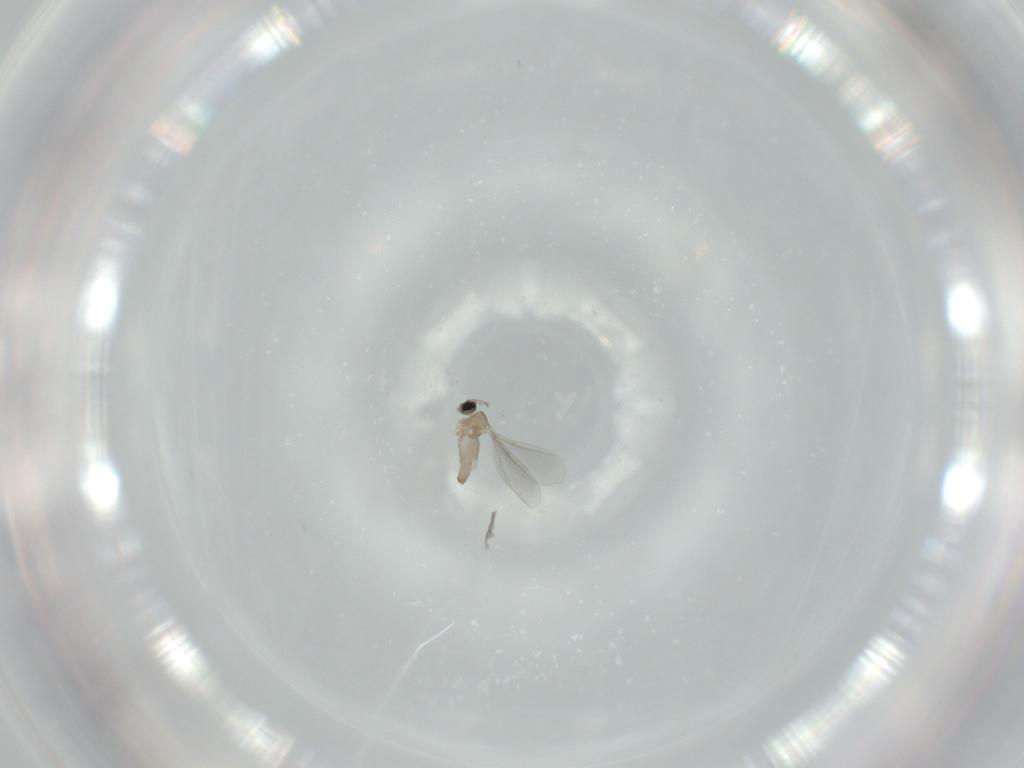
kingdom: Animalia
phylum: Arthropoda
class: Insecta
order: Diptera
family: Cecidomyiidae
